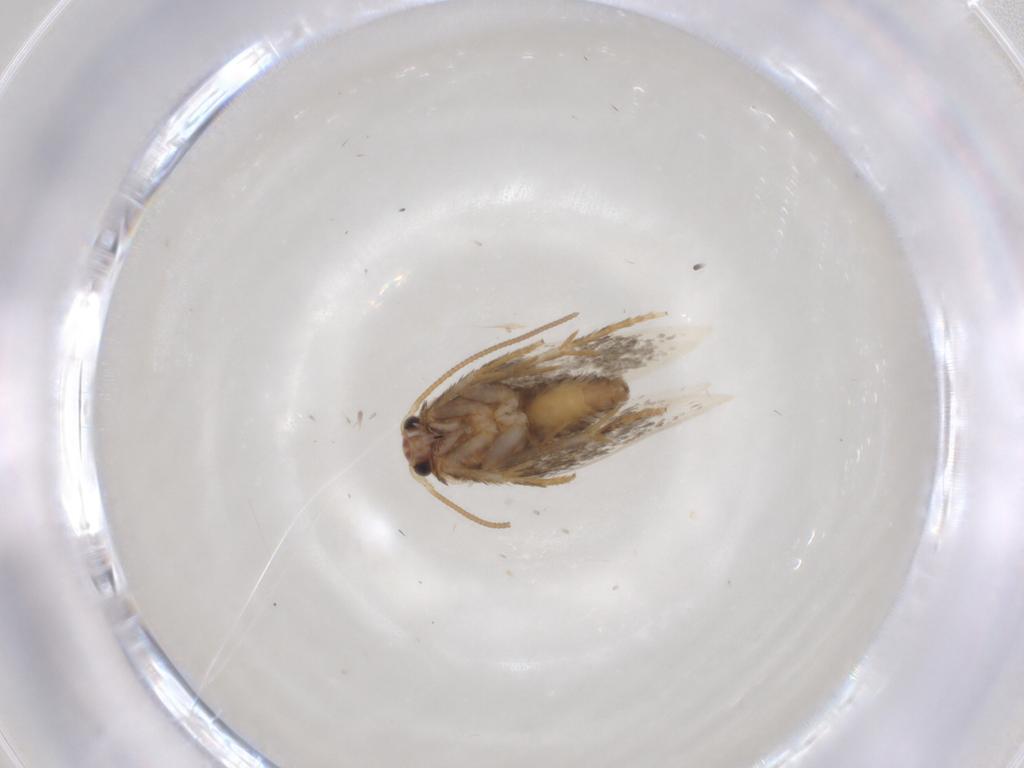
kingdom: Animalia
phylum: Arthropoda
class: Insecta
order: Lepidoptera
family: Nepticulidae
